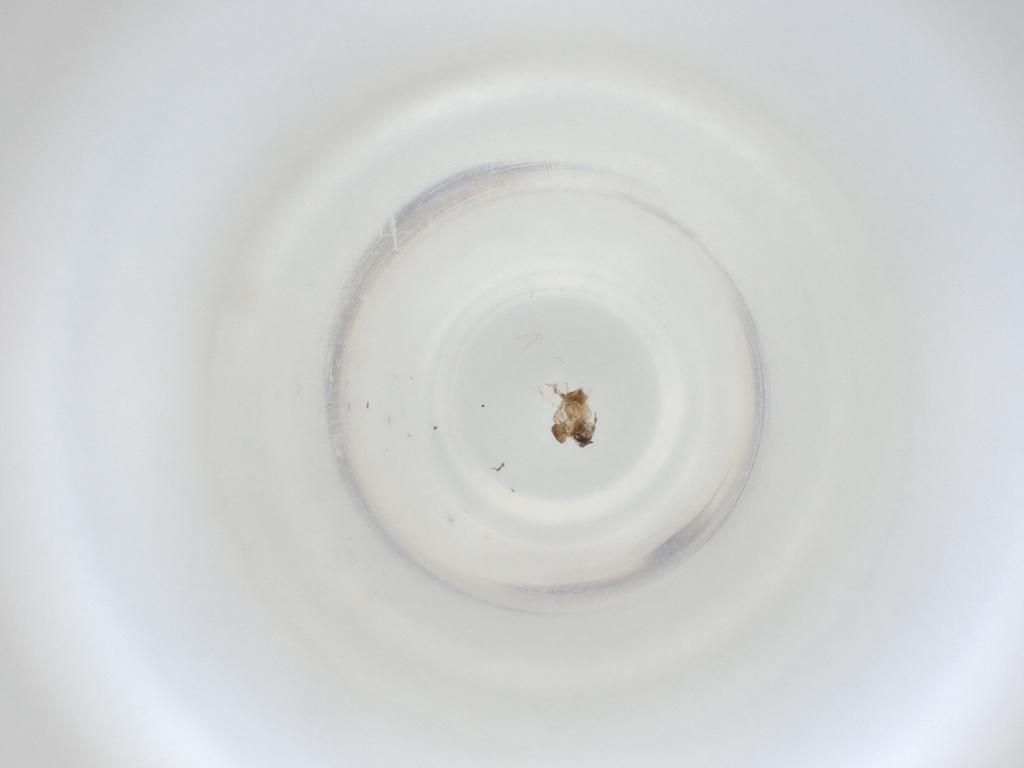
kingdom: Animalia
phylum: Arthropoda
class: Insecta
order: Diptera
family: Cecidomyiidae
